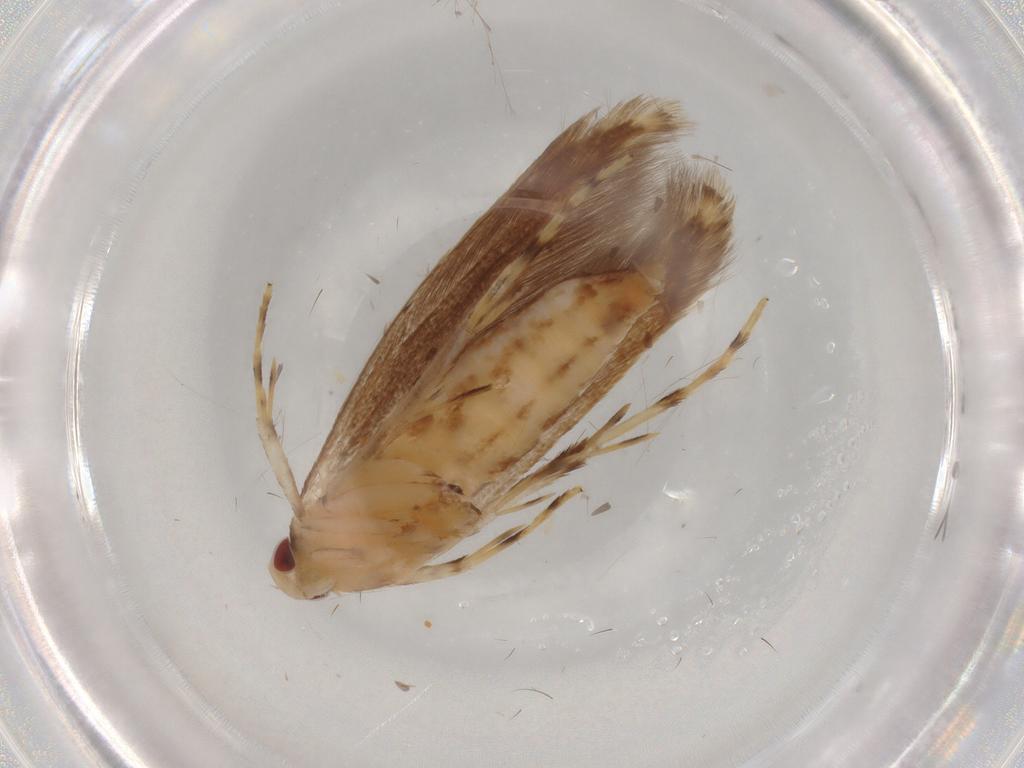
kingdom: Animalia
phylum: Arthropoda
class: Insecta
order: Lepidoptera
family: Cosmopterigidae
